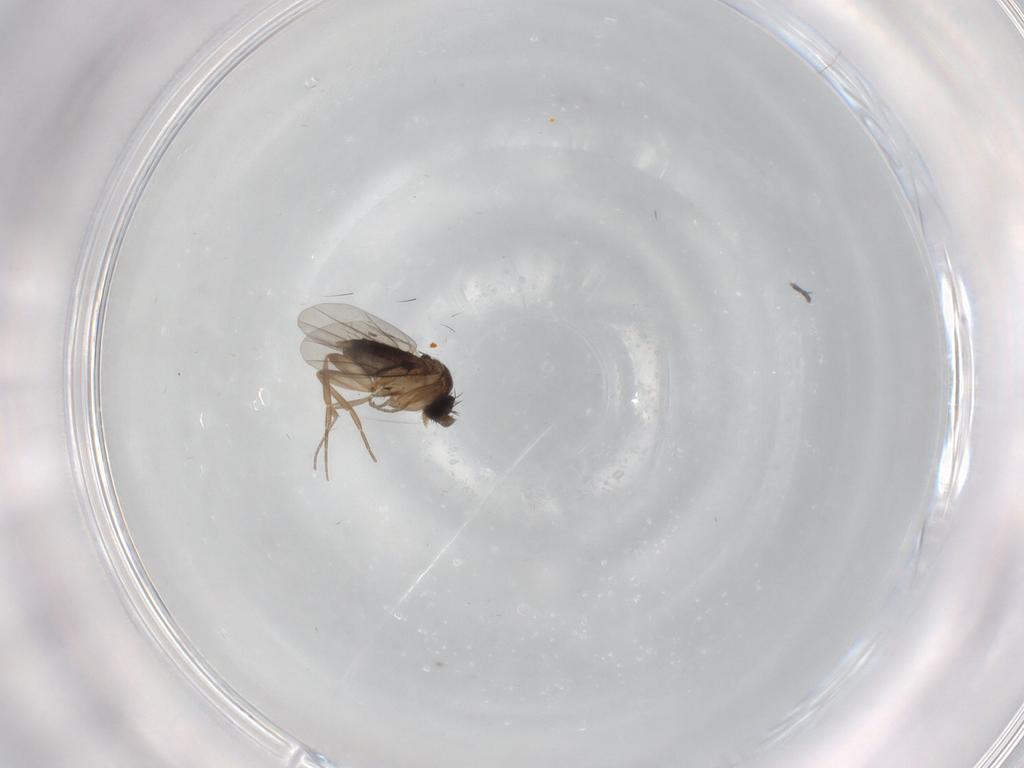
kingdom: Animalia
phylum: Arthropoda
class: Insecta
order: Diptera
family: Phoridae
